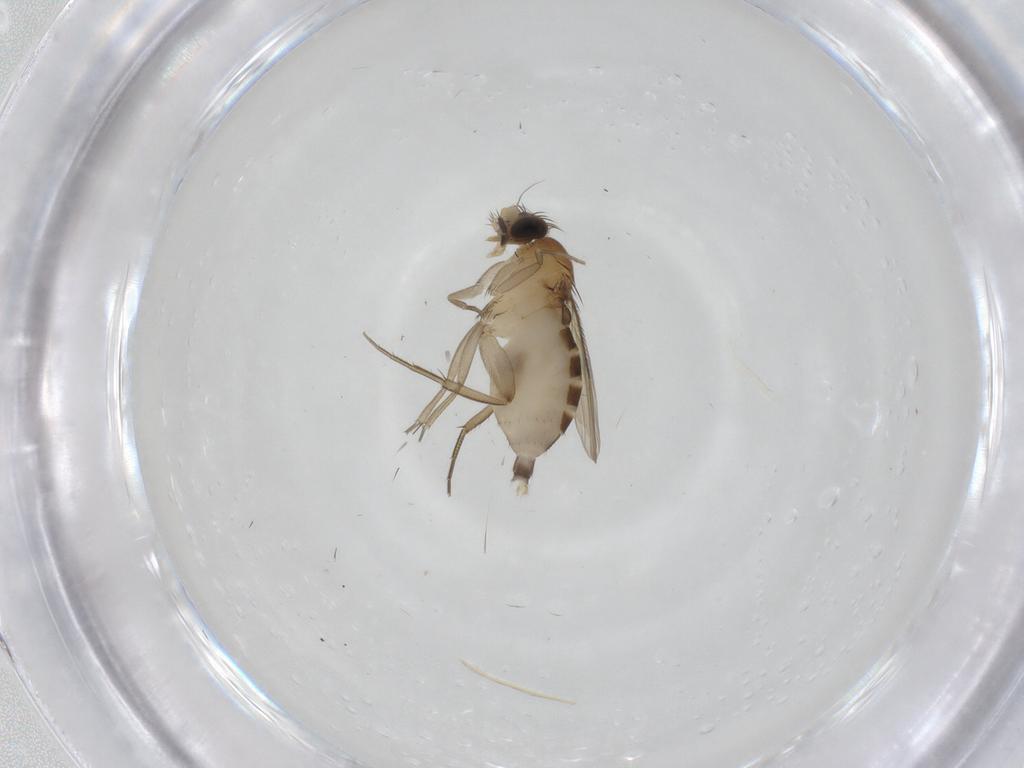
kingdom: Animalia
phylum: Arthropoda
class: Insecta
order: Diptera
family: Phoridae
